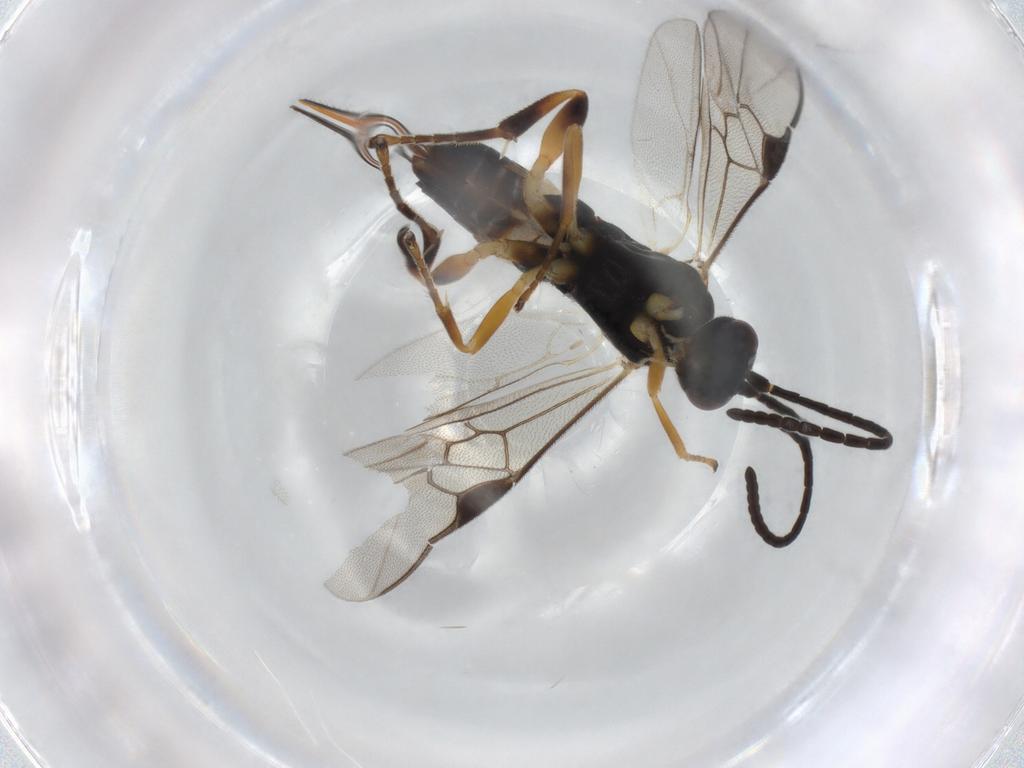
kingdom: Animalia
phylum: Arthropoda
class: Insecta
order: Hymenoptera
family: Braconidae
